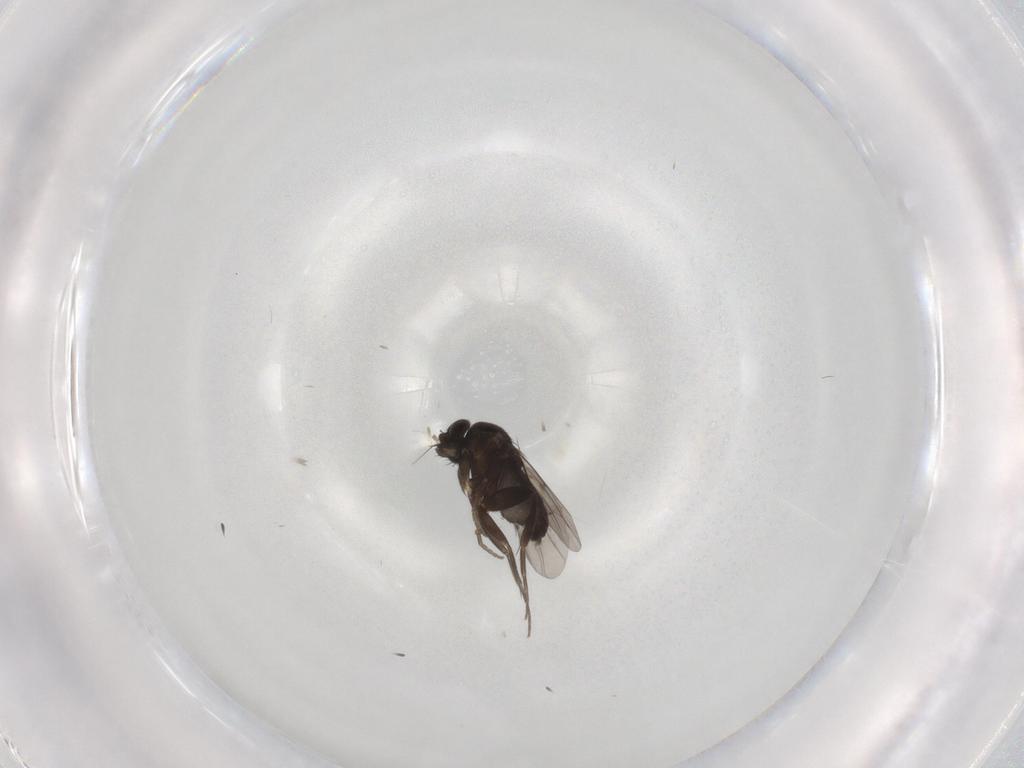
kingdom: Animalia
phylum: Arthropoda
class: Insecta
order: Diptera
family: Phoridae
